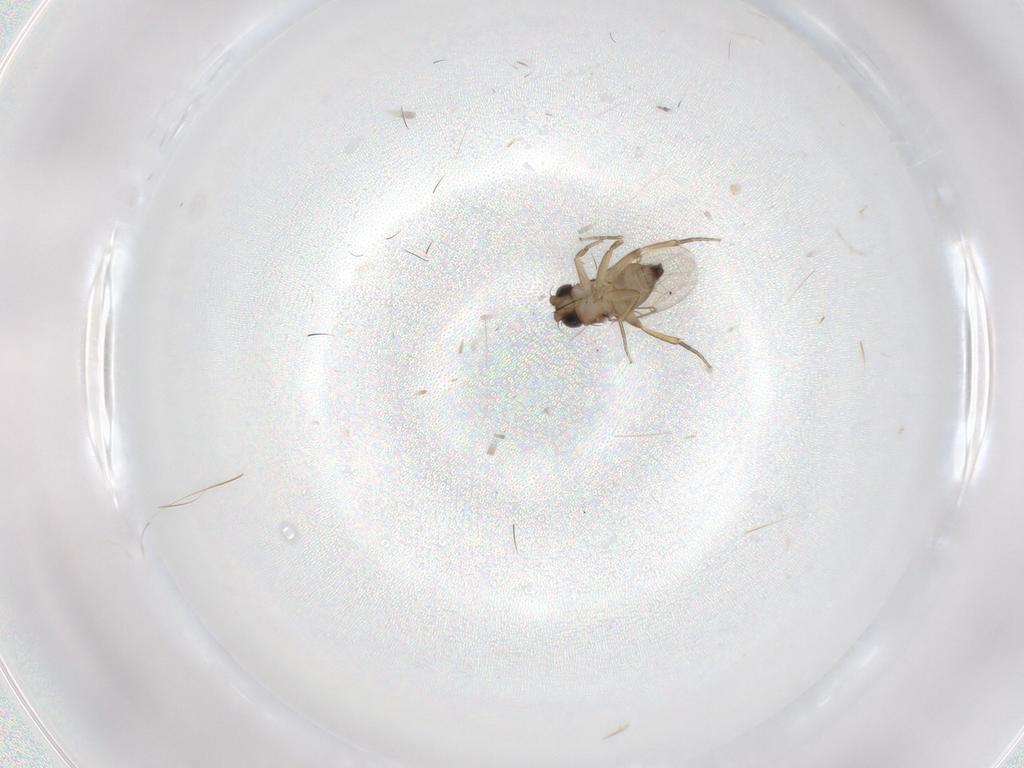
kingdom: Animalia
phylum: Arthropoda
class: Insecta
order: Diptera
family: Phoridae
